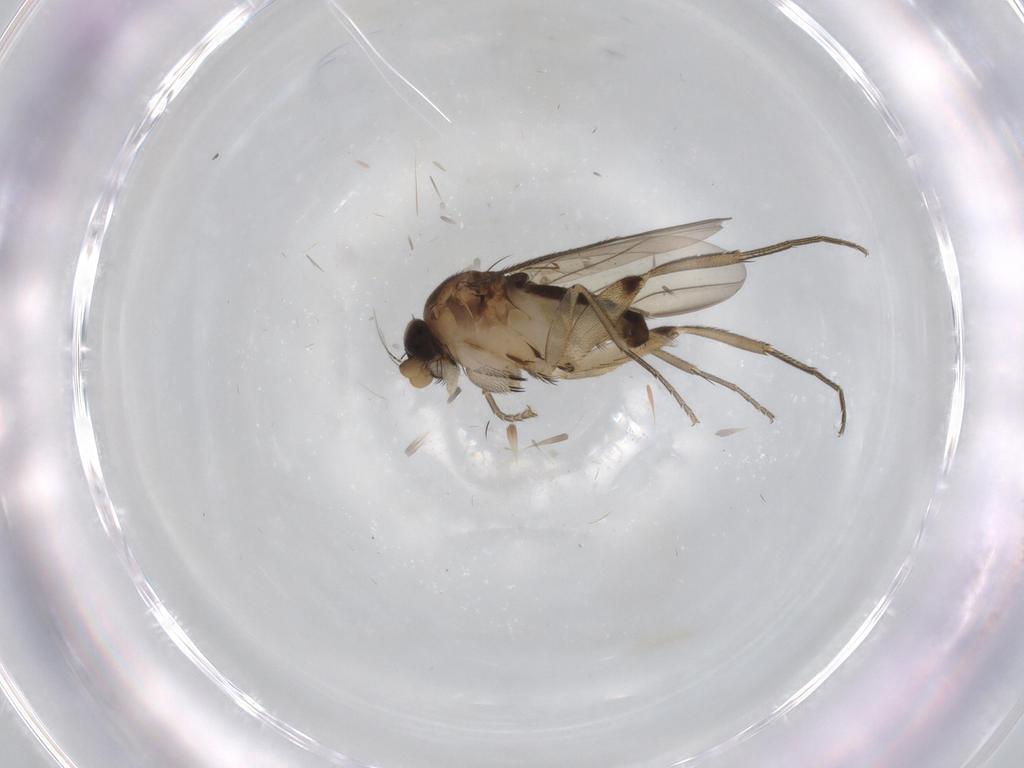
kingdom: Animalia
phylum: Arthropoda
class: Insecta
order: Diptera
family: Phoridae
